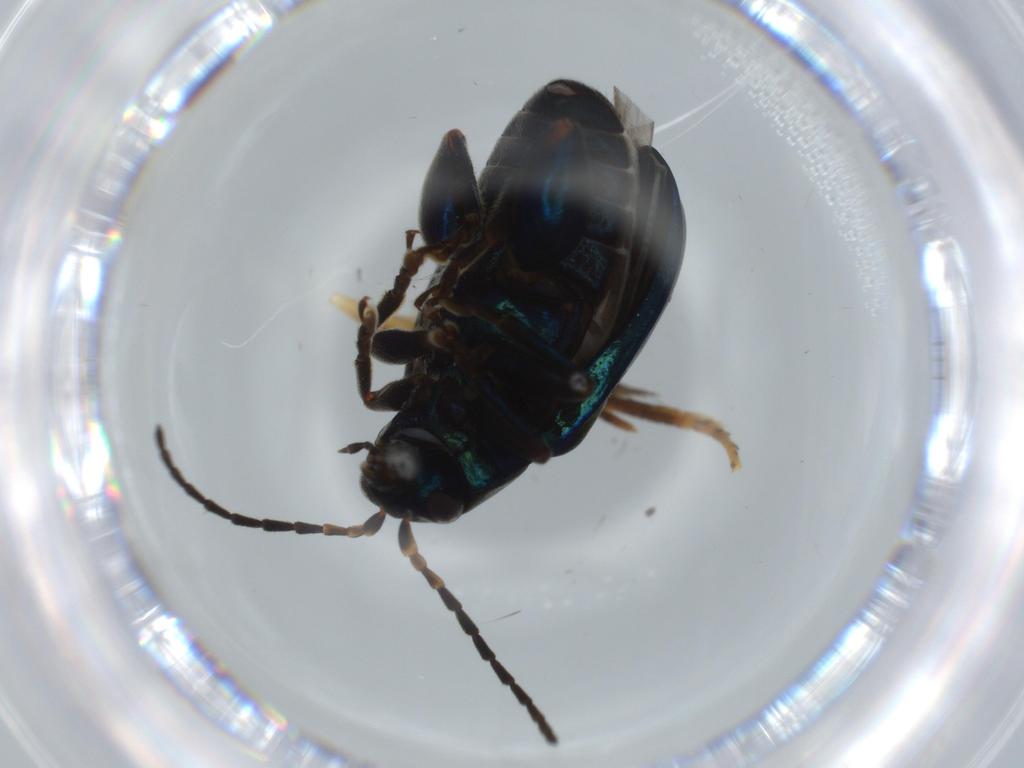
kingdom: Animalia
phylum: Arthropoda
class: Insecta
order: Coleoptera
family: Chrysomelidae
